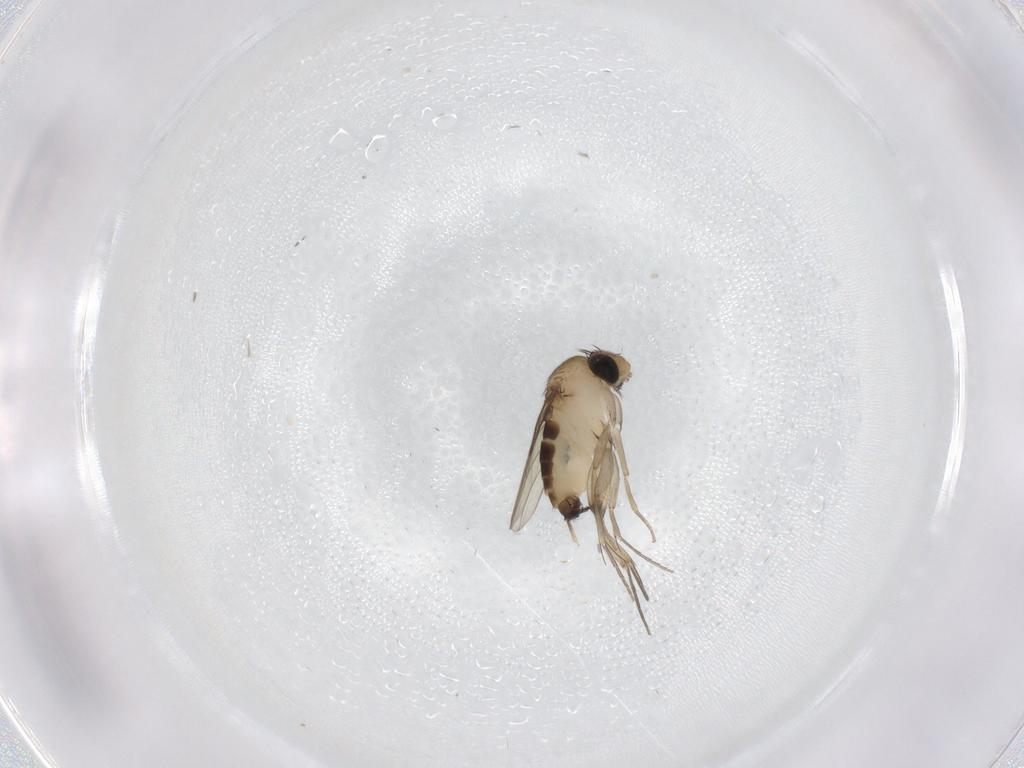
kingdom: Animalia
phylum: Arthropoda
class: Insecta
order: Diptera
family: Phoridae
